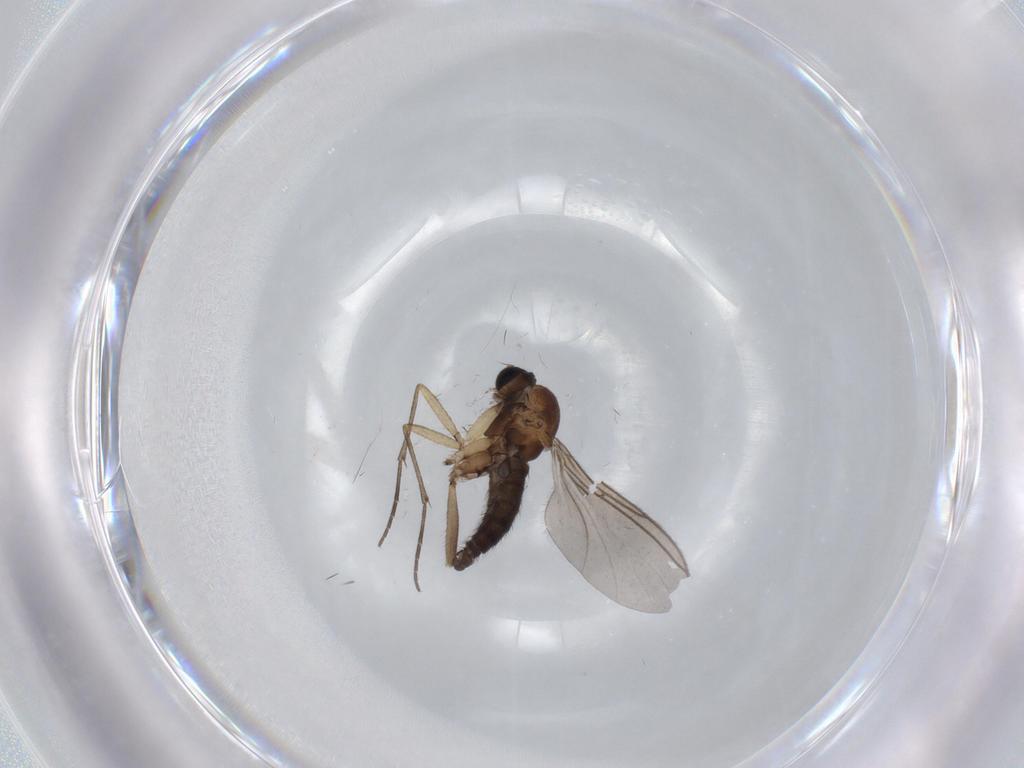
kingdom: Animalia
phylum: Arthropoda
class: Insecta
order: Diptera
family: Sciaridae
